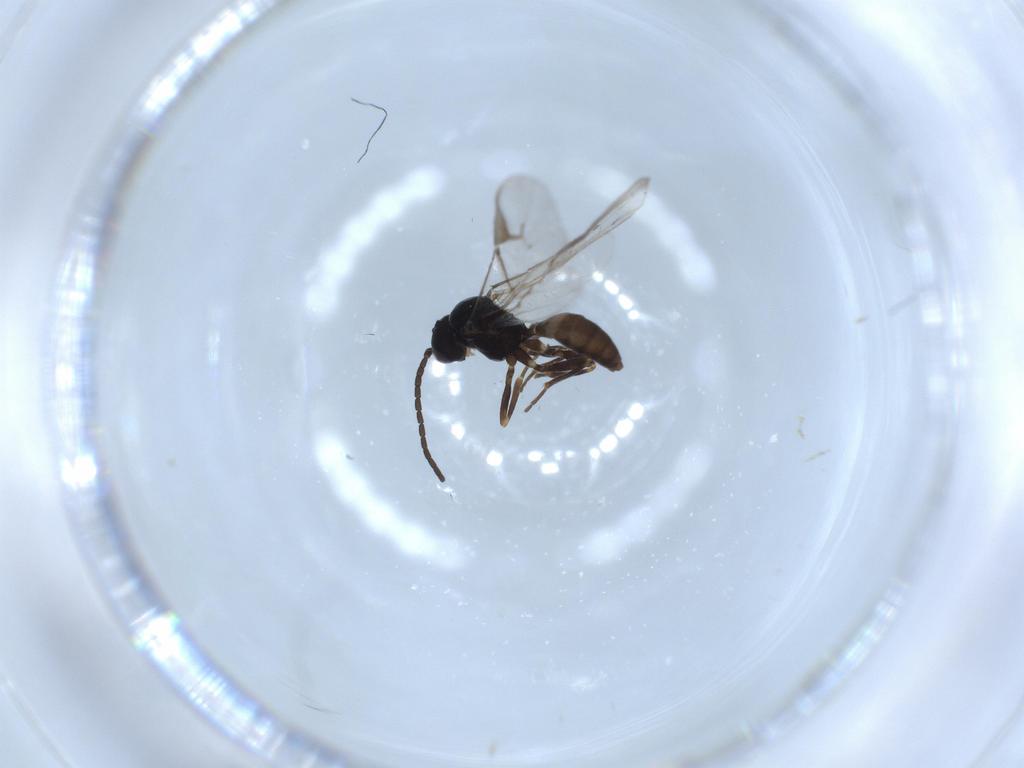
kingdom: Animalia
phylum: Arthropoda
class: Insecta
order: Hymenoptera
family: Braconidae
